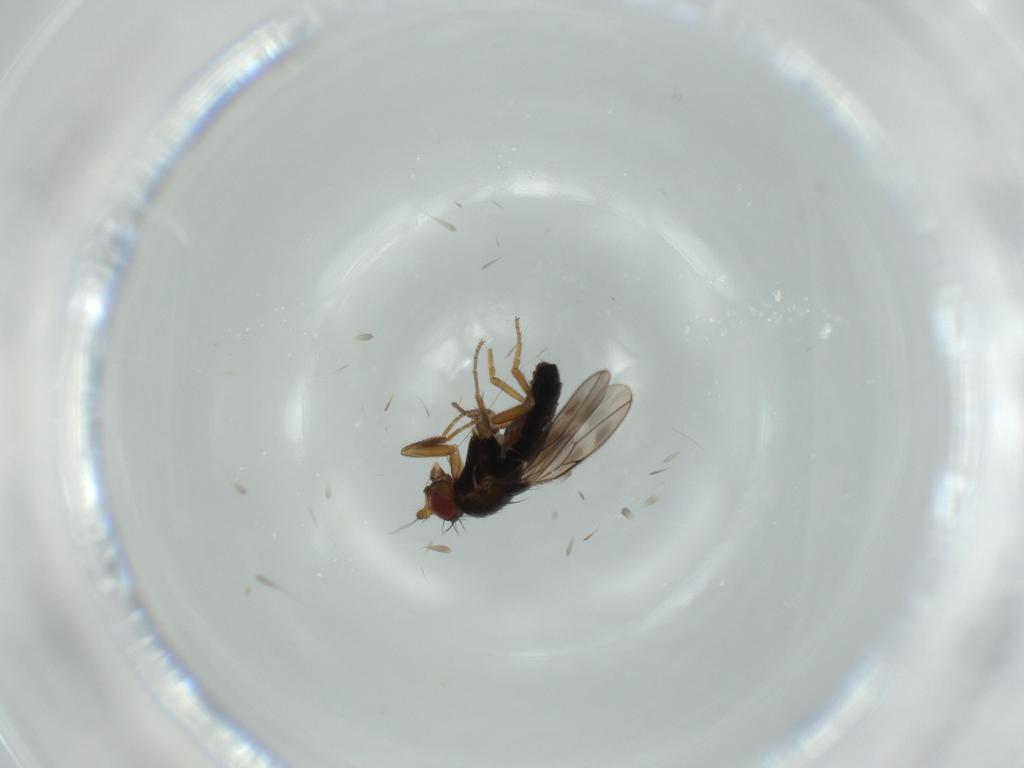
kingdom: Animalia
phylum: Arthropoda
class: Insecta
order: Diptera
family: Sphaeroceridae
